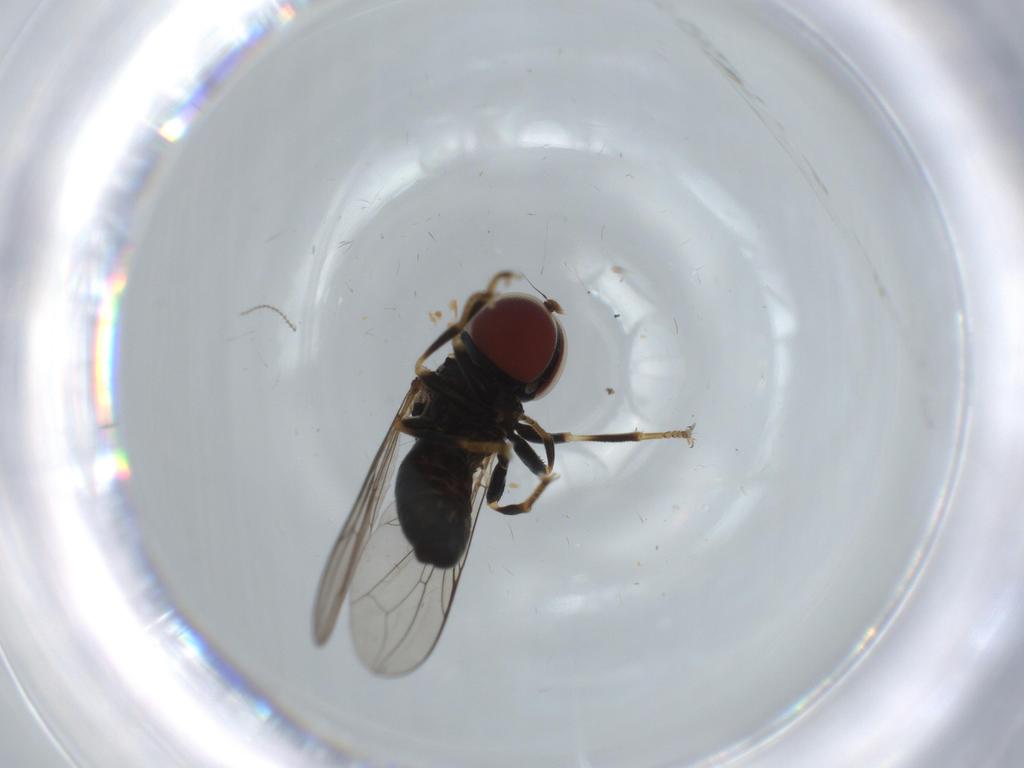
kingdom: Animalia
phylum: Arthropoda
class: Insecta
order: Diptera
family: Pipunculidae
